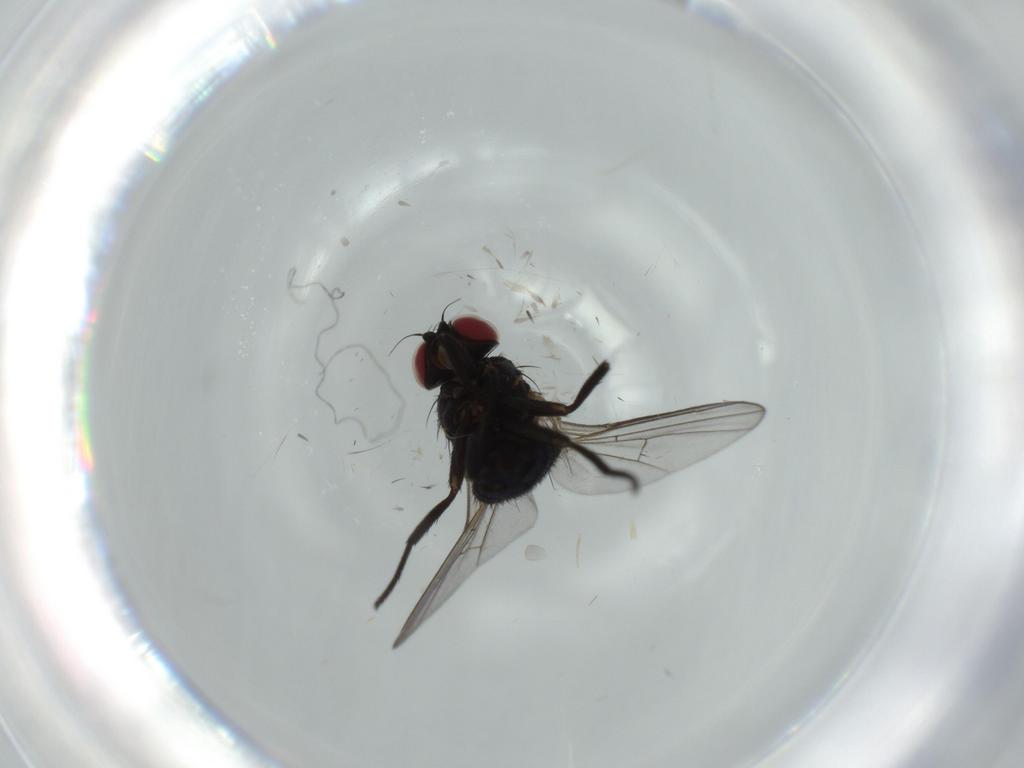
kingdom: Animalia
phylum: Arthropoda
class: Insecta
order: Diptera
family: Agromyzidae
